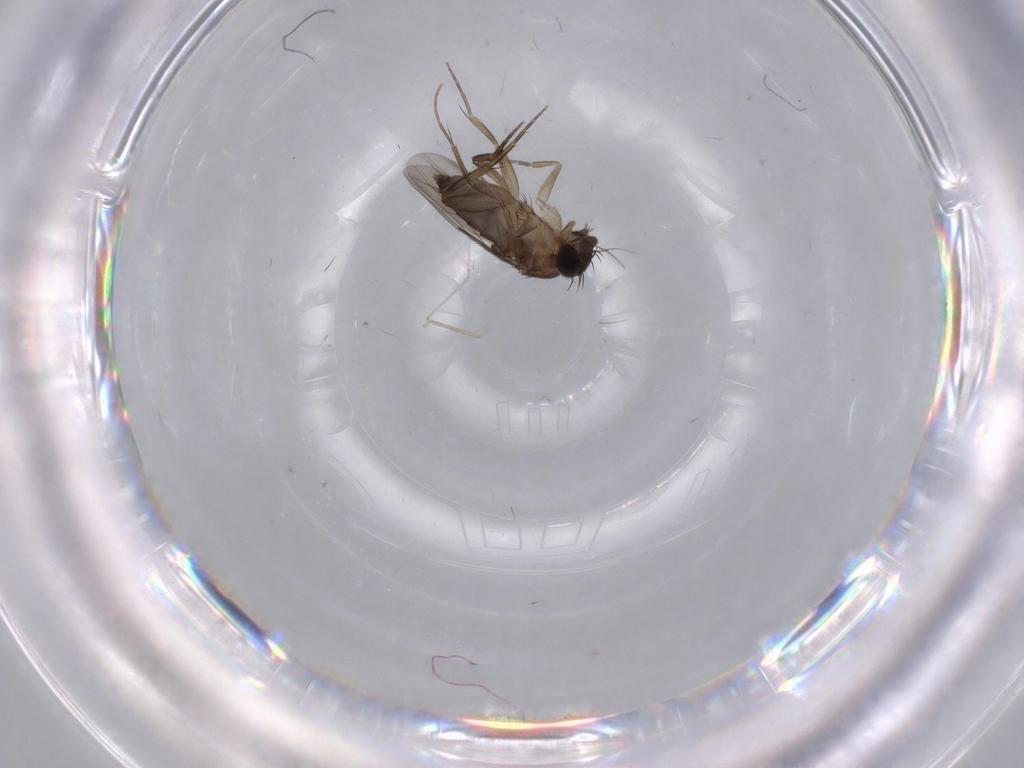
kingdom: Animalia
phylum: Arthropoda
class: Insecta
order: Diptera
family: Phoridae
